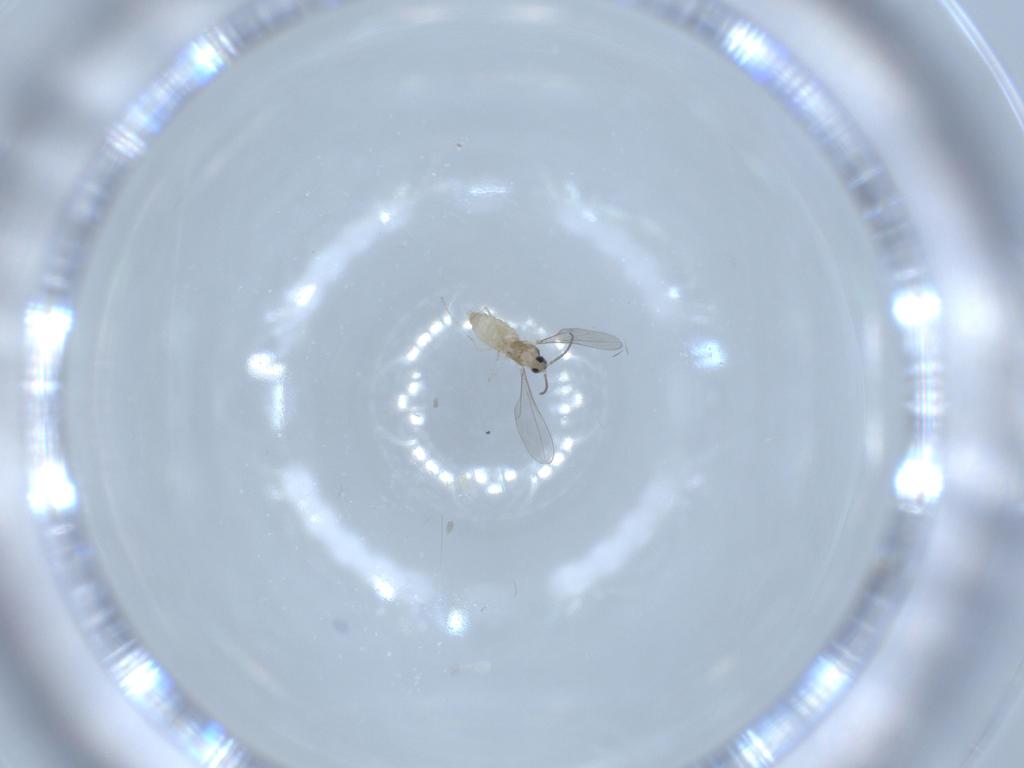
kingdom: Animalia
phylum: Arthropoda
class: Insecta
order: Diptera
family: Cecidomyiidae
